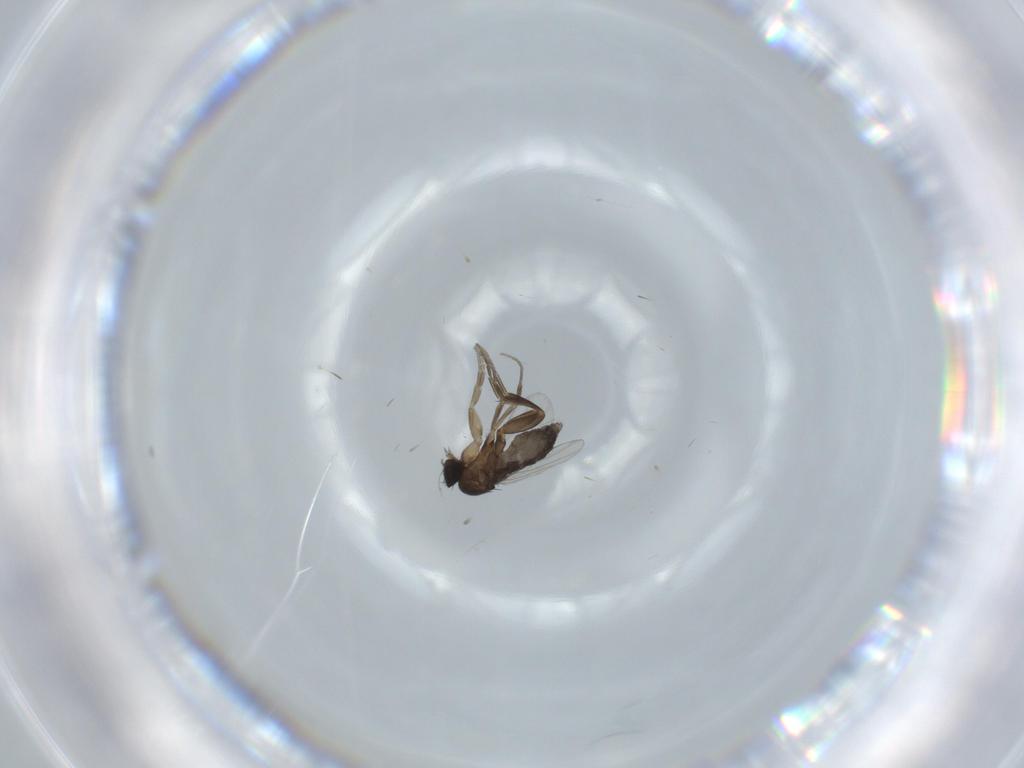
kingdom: Animalia
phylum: Arthropoda
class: Insecta
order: Diptera
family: Phoridae
